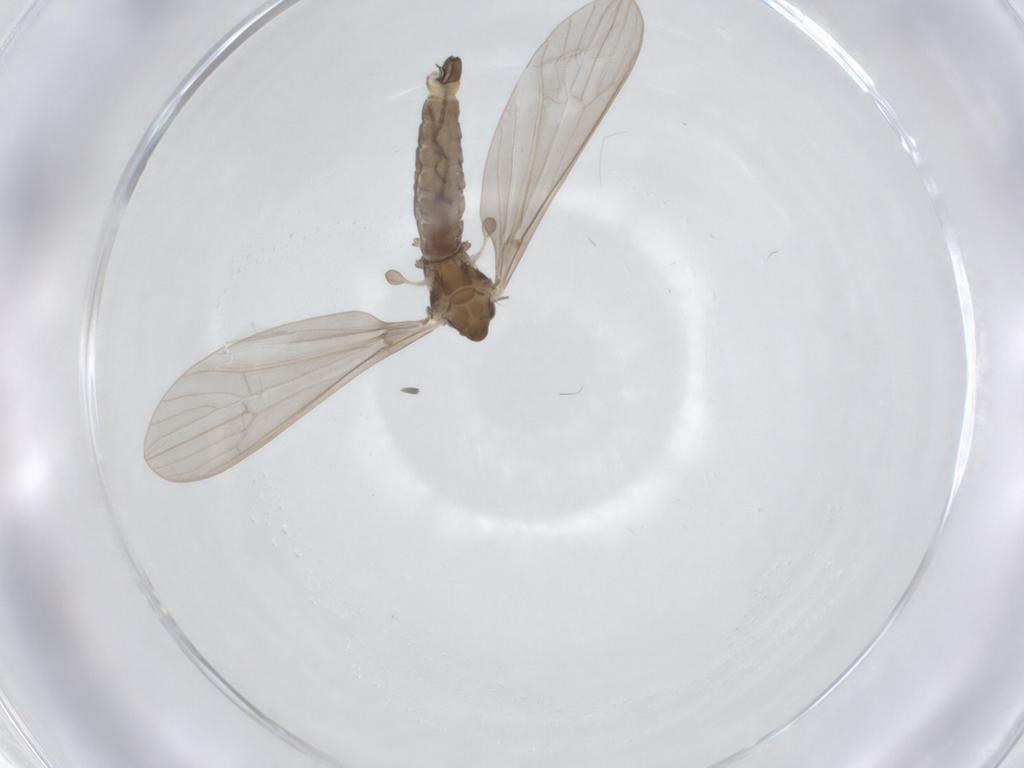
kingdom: Animalia
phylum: Arthropoda
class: Insecta
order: Diptera
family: Limoniidae
